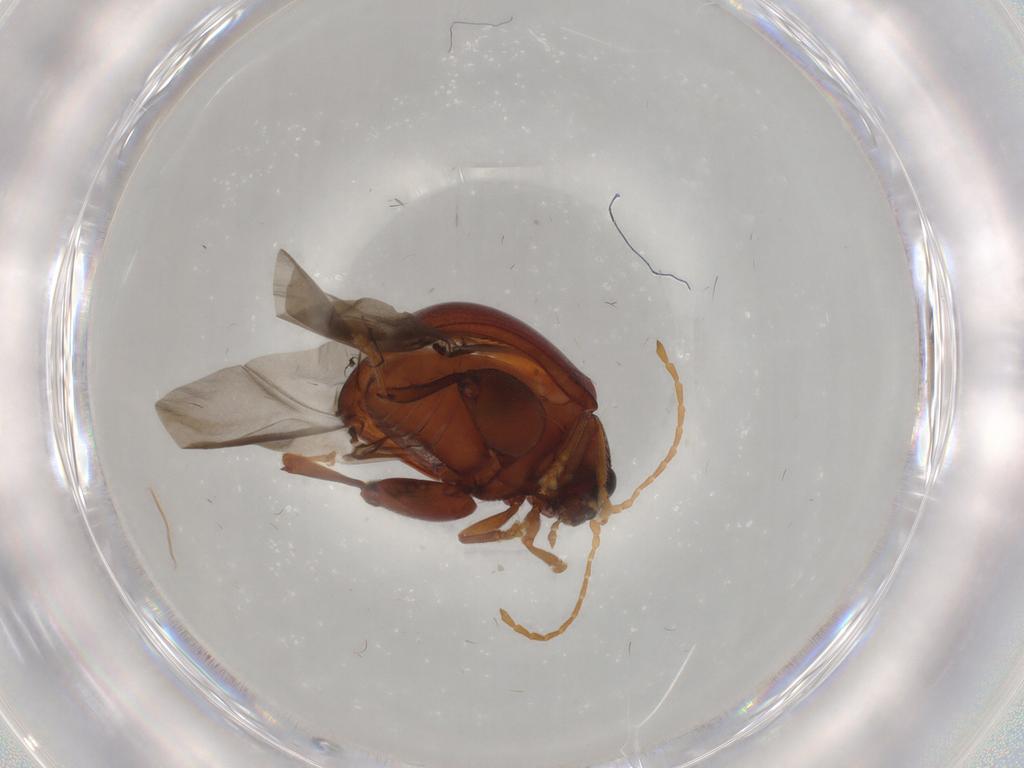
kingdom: Animalia
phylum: Arthropoda
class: Insecta
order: Coleoptera
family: Chrysomelidae
